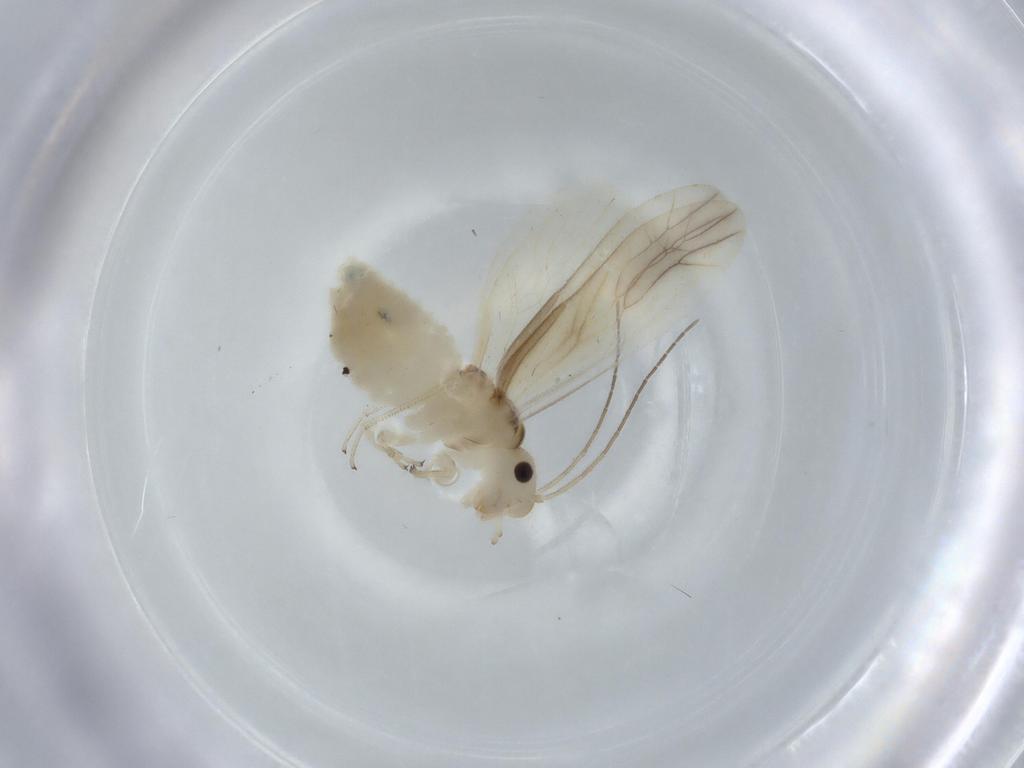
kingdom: Animalia
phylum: Arthropoda
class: Insecta
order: Psocodea
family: Caeciliusidae
